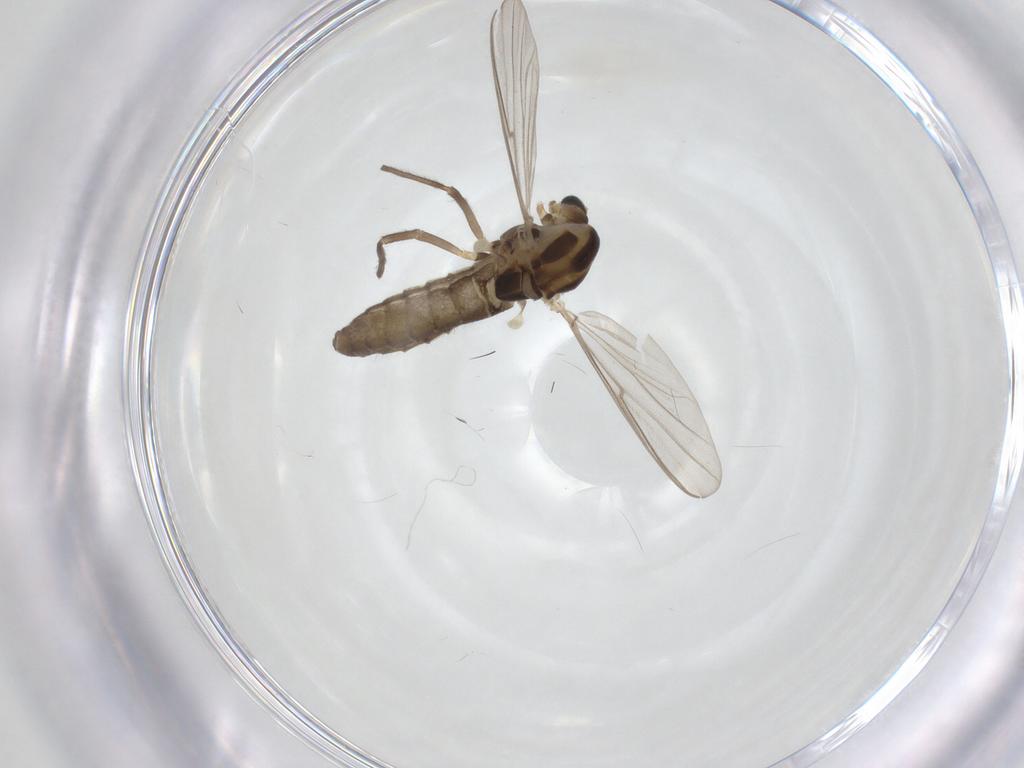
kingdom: Animalia
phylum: Arthropoda
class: Insecta
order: Diptera
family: Chironomidae
